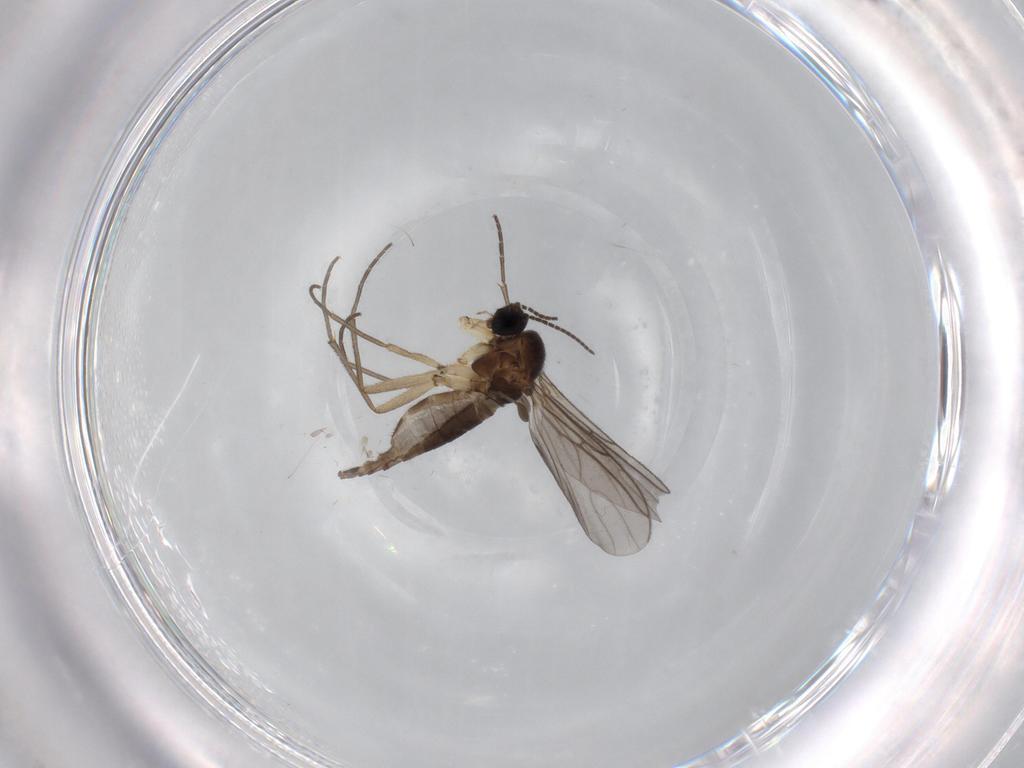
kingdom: Animalia
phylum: Arthropoda
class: Insecta
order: Diptera
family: Sciaridae
